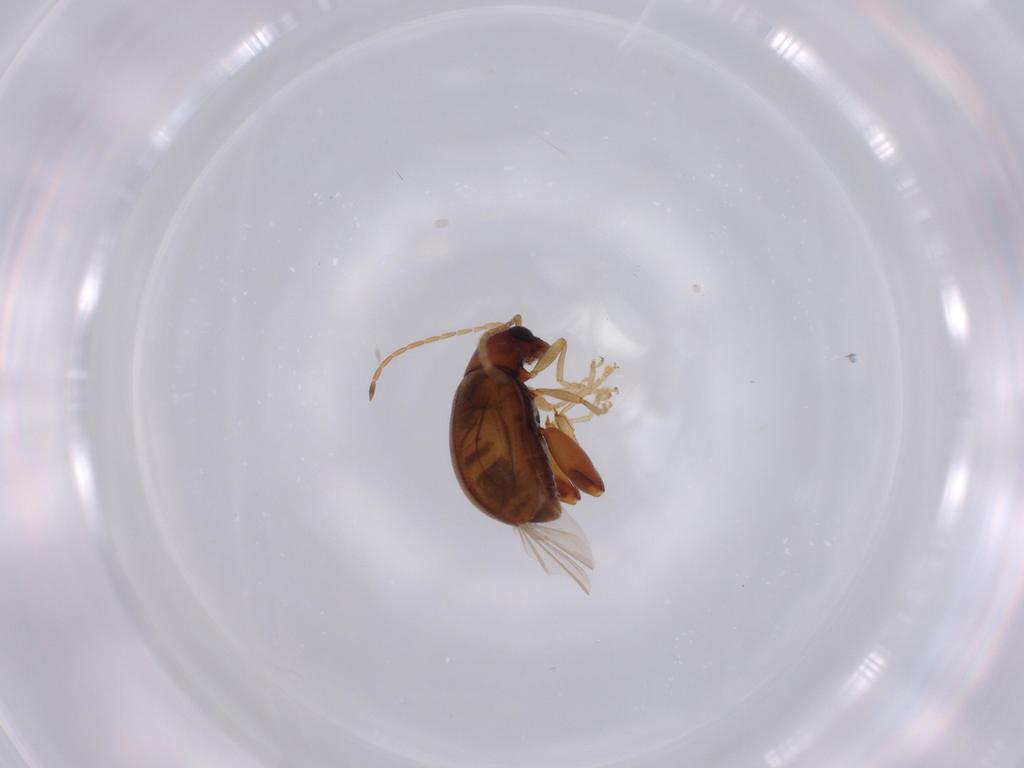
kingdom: Animalia
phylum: Arthropoda
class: Insecta
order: Coleoptera
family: Chrysomelidae
